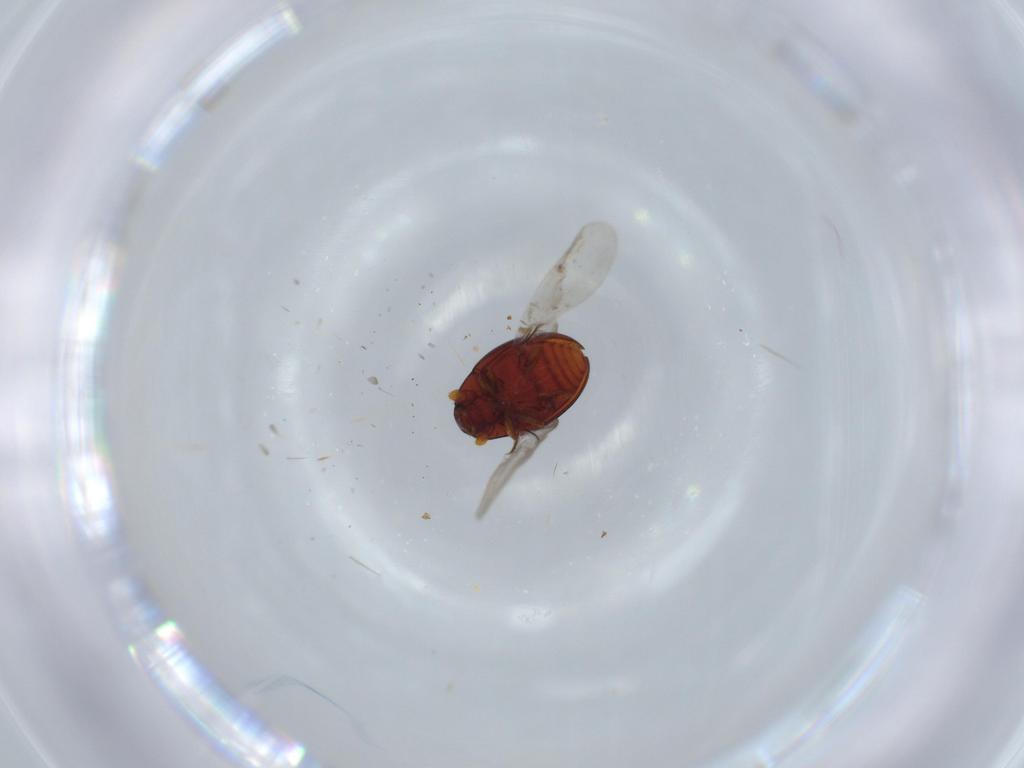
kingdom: Animalia
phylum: Arthropoda
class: Insecta
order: Coleoptera
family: Cerylonidae
